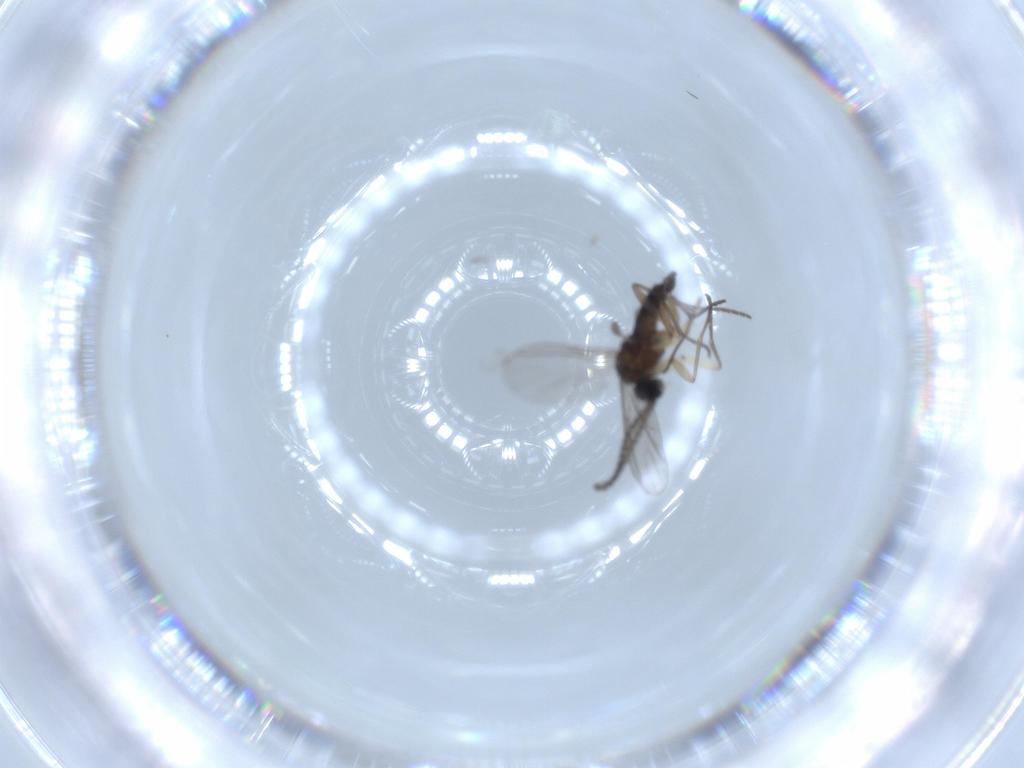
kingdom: Animalia
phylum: Arthropoda
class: Insecta
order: Diptera
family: Sciaridae
